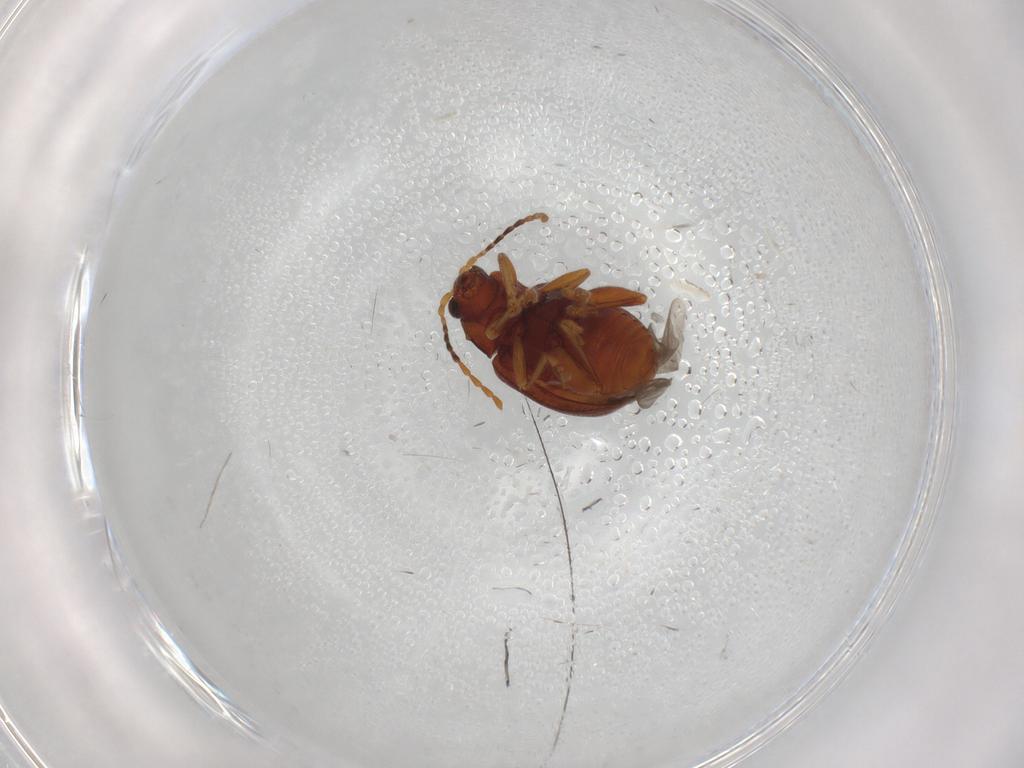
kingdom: Animalia
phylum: Arthropoda
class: Insecta
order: Coleoptera
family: Chrysomelidae
